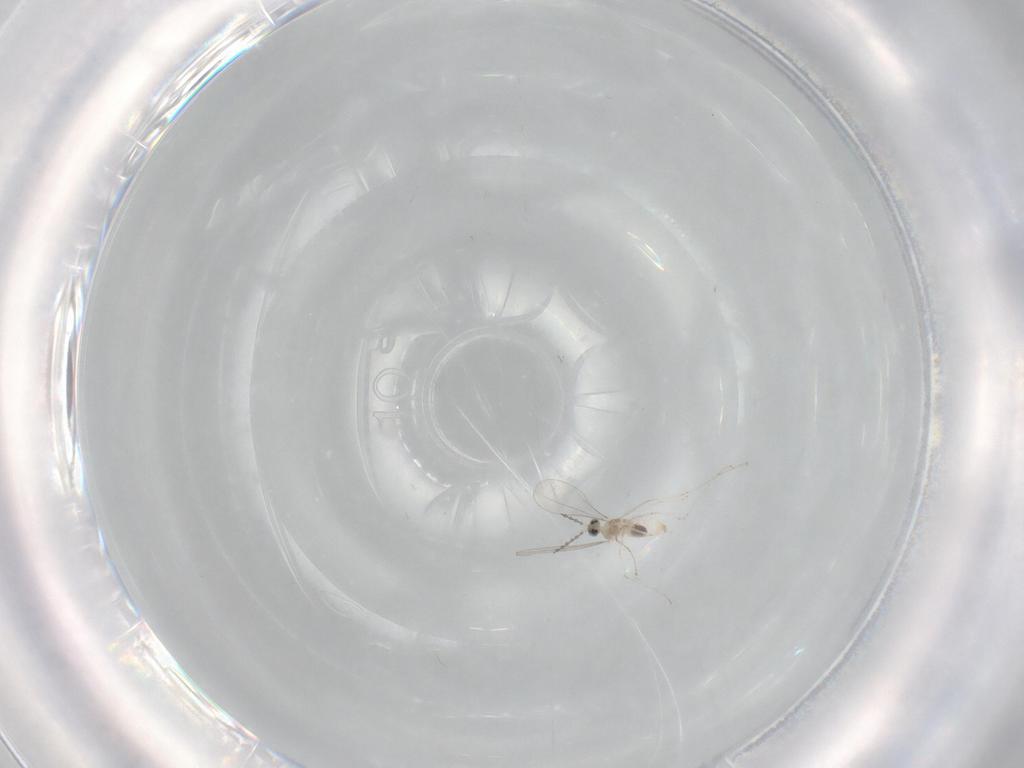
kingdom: Animalia
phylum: Arthropoda
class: Insecta
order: Diptera
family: Cecidomyiidae
